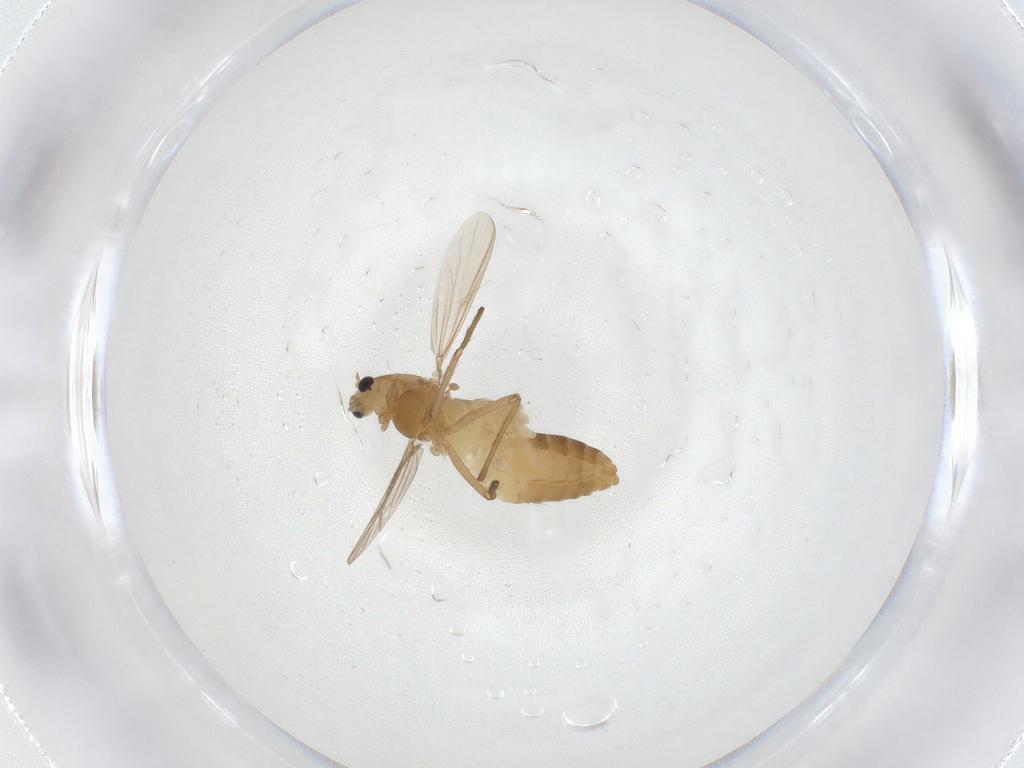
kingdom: Animalia
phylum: Arthropoda
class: Insecta
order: Diptera
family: Chironomidae
